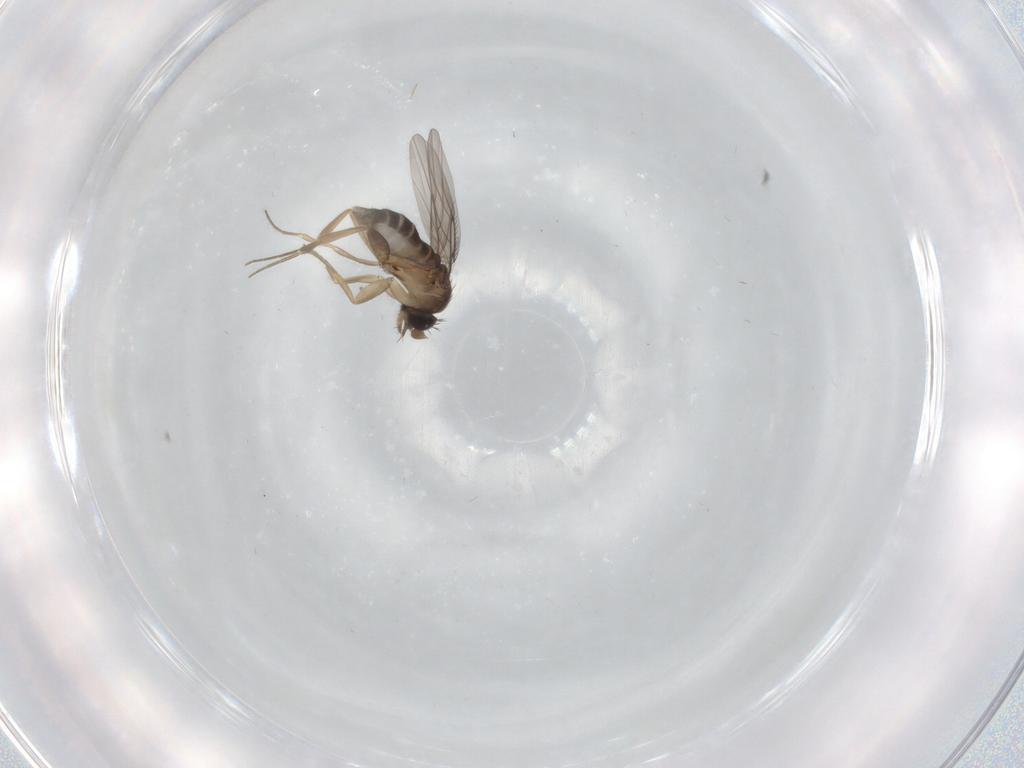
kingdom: Animalia
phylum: Arthropoda
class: Insecta
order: Diptera
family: Phoridae
